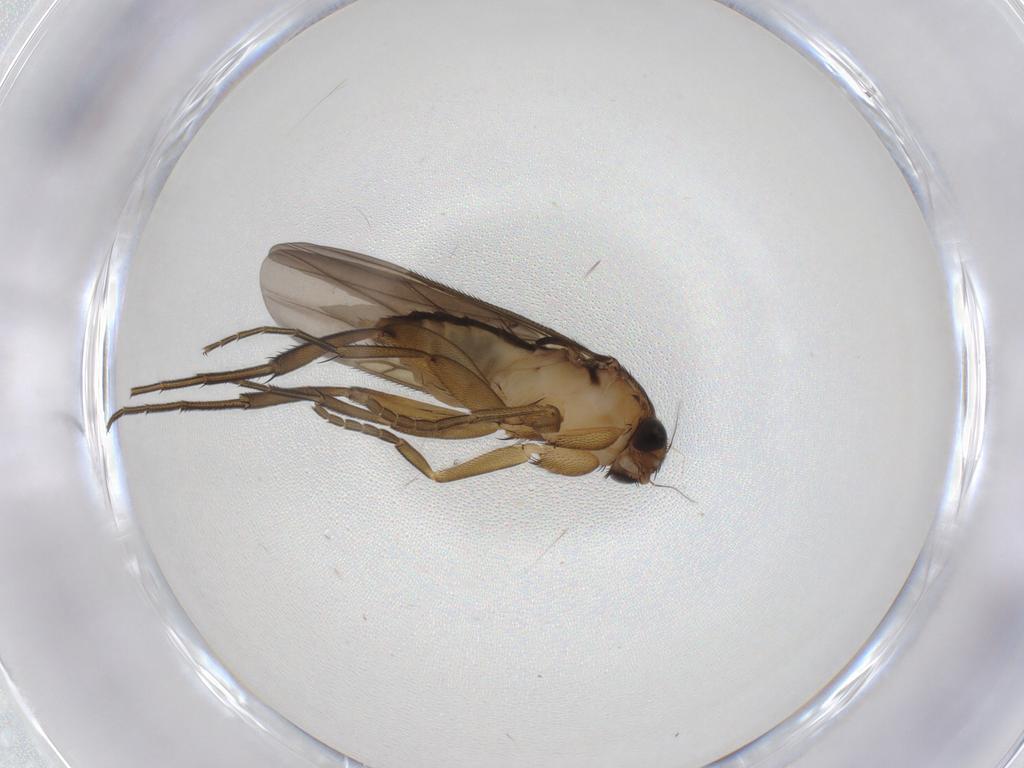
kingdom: Animalia
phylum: Arthropoda
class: Insecta
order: Diptera
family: Phoridae
